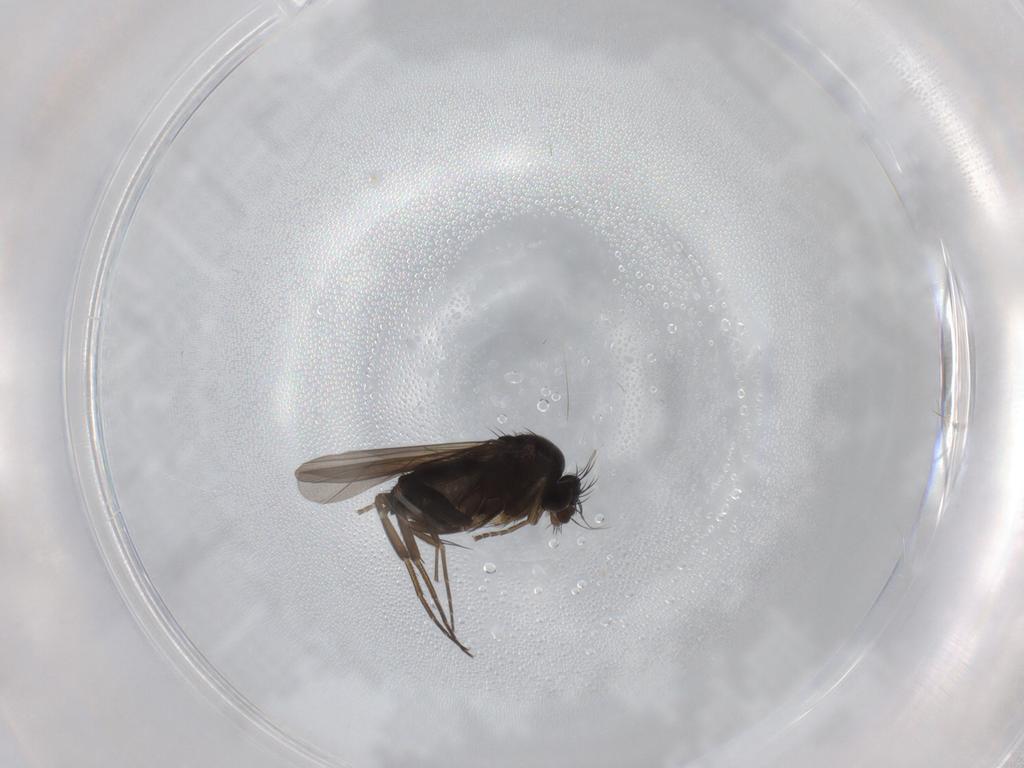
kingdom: Animalia
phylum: Arthropoda
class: Insecta
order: Diptera
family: Phoridae
